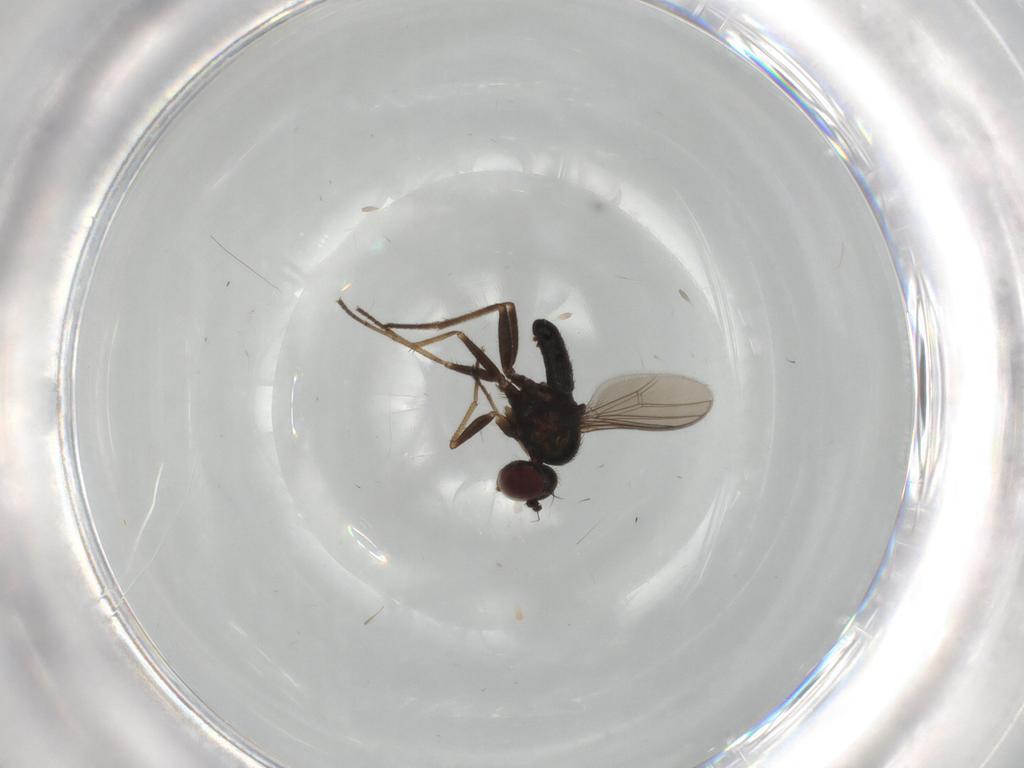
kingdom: Animalia
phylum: Arthropoda
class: Insecta
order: Diptera
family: Dolichopodidae
